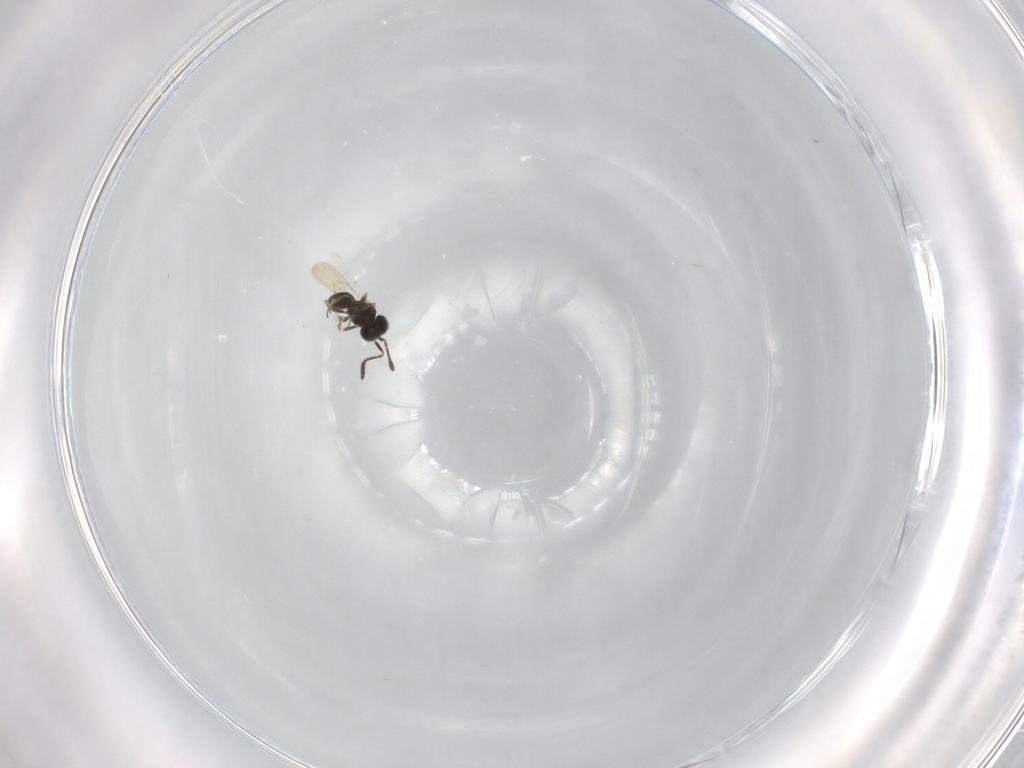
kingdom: Animalia
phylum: Arthropoda
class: Insecta
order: Hymenoptera
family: Scelionidae
